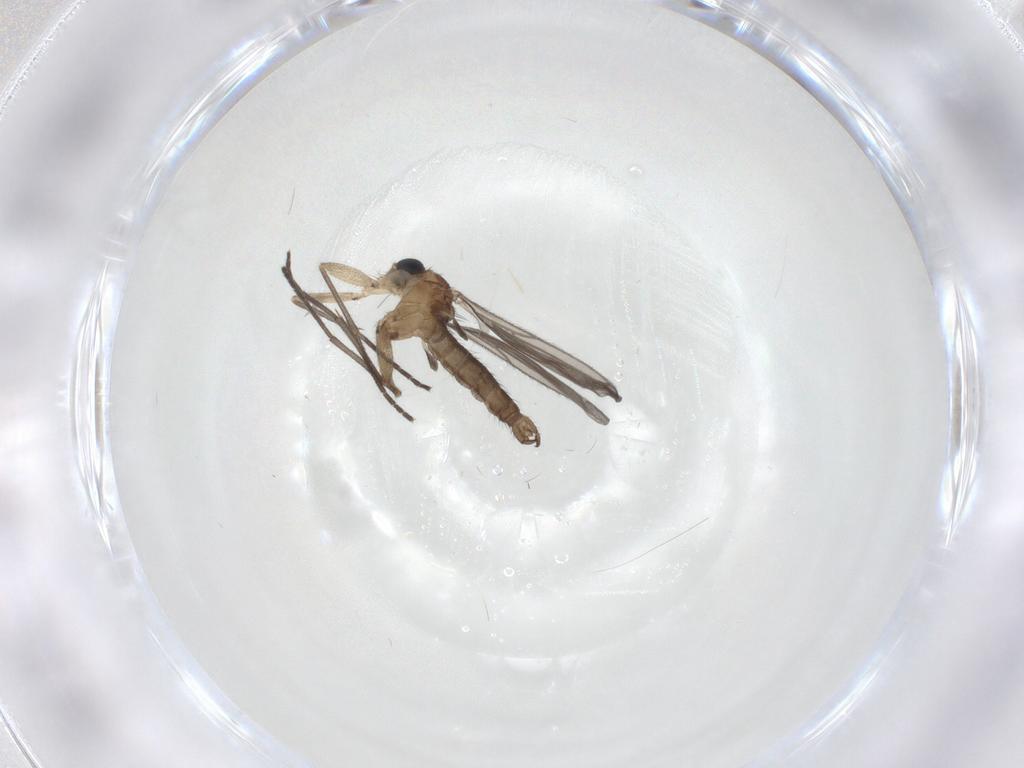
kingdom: Animalia
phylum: Arthropoda
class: Insecta
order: Diptera
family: Sciaridae
